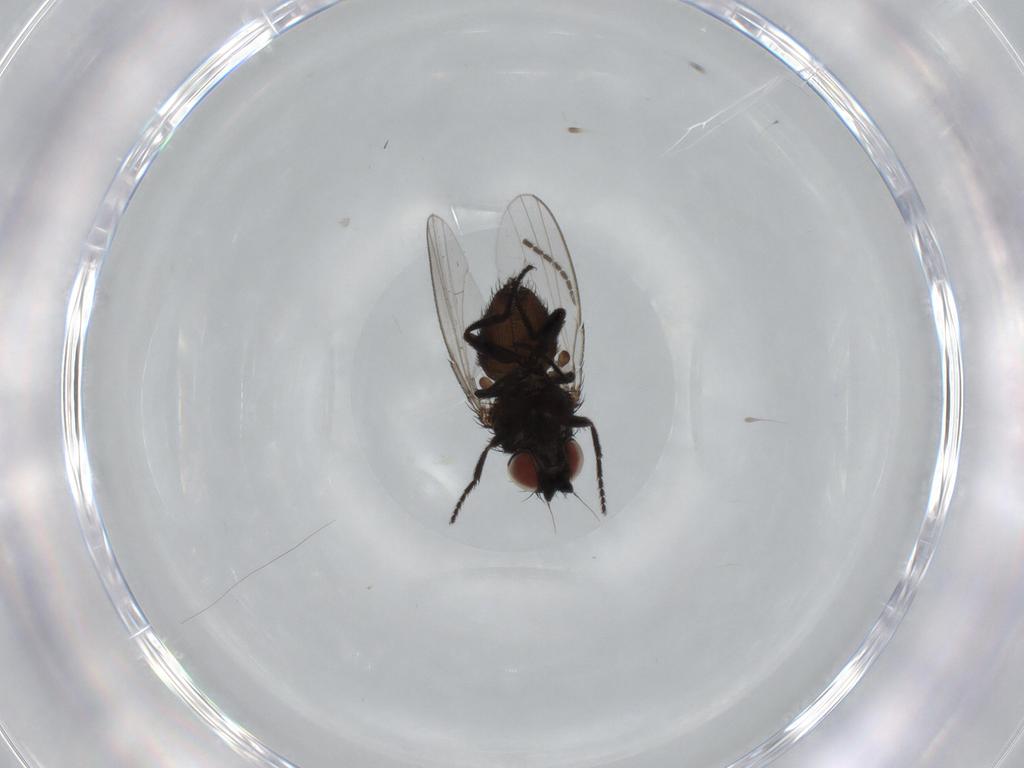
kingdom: Animalia
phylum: Arthropoda
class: Insecta
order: Diptera
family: Milichiidae
